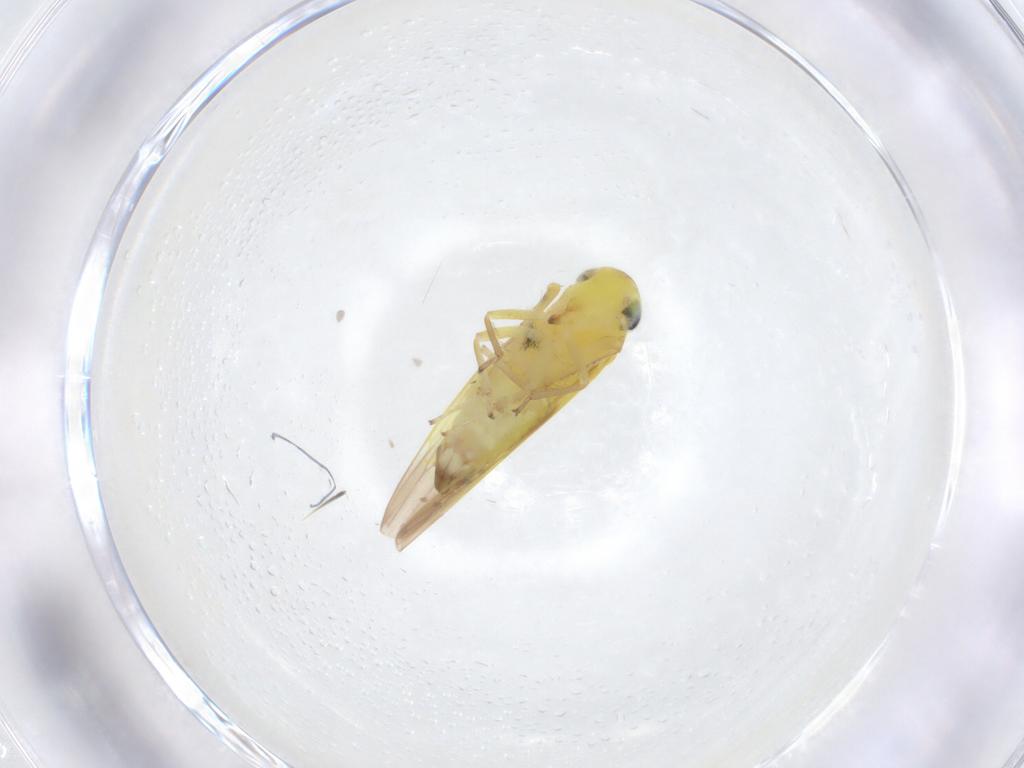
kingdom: Animalia
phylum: Arthropoda
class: Insecta
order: Hemiptera
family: Cicadellidae
